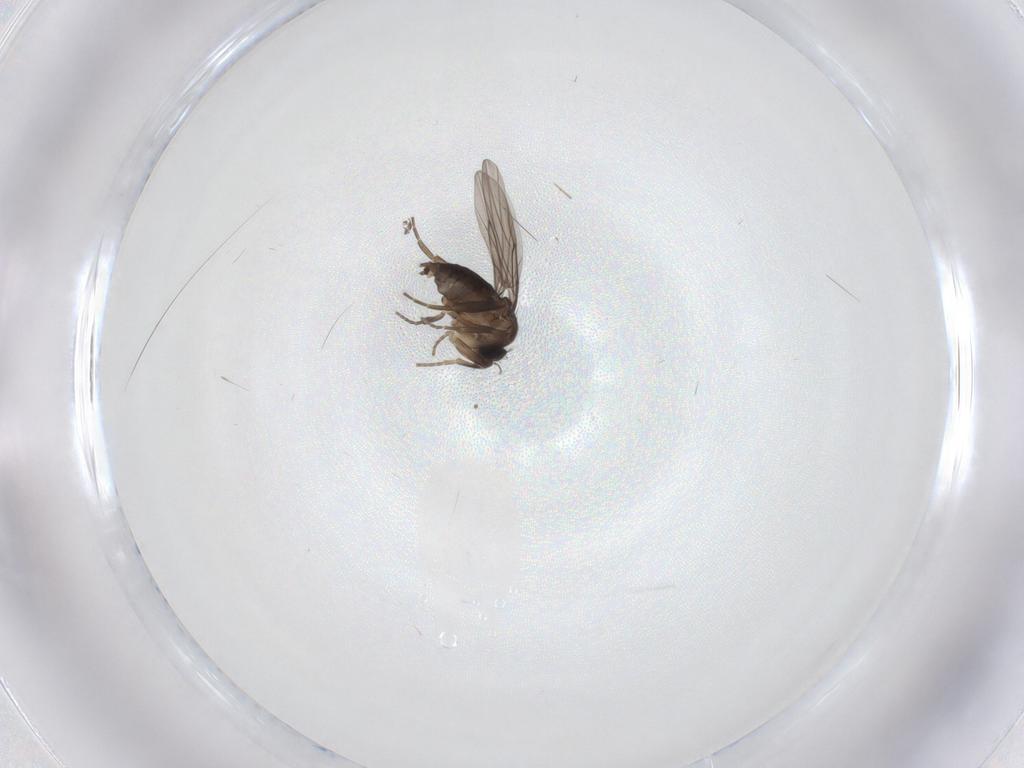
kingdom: Animalia
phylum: Arthropoda
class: Insecta
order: Diptera
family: Phoridae
